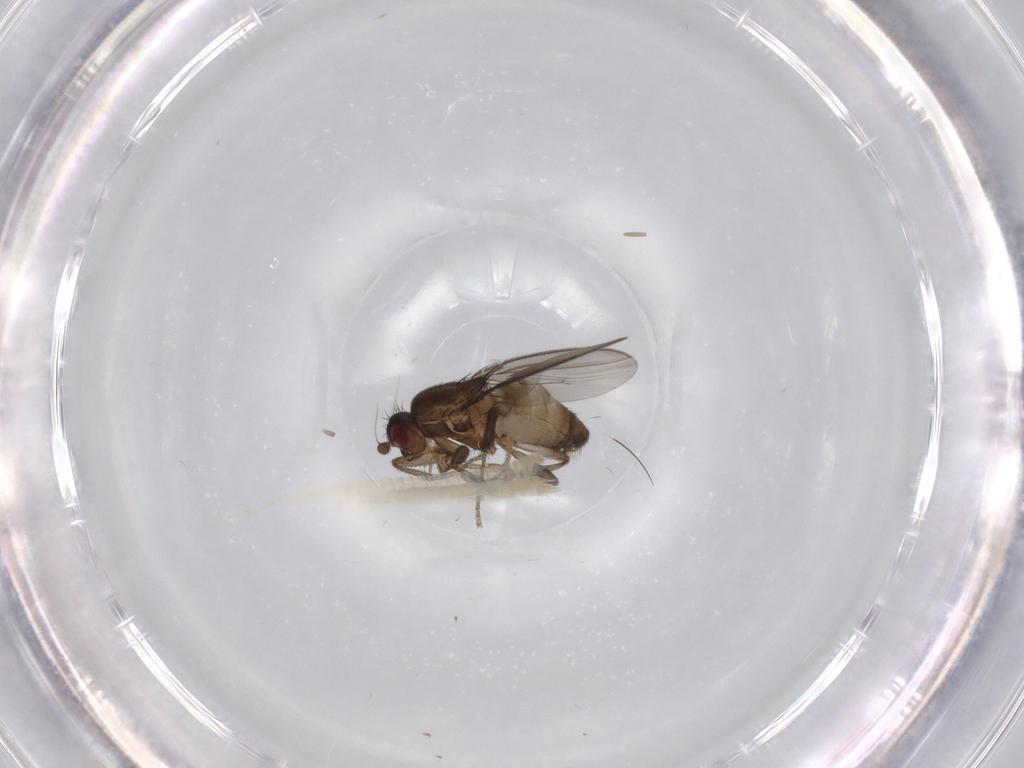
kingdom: Animalia
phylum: Arthropoda
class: Insecta
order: Diptera
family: Sphaeroceridae
